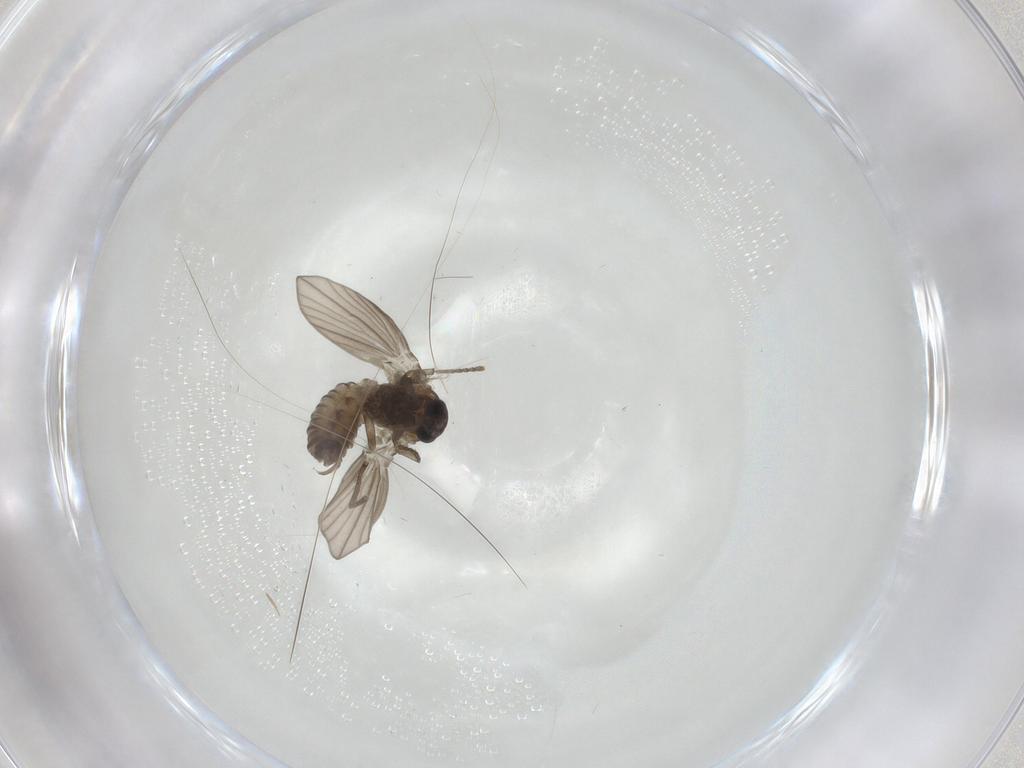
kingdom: Animalia
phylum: Arthropoda
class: Insecta
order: Diptera
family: Psychodidae
